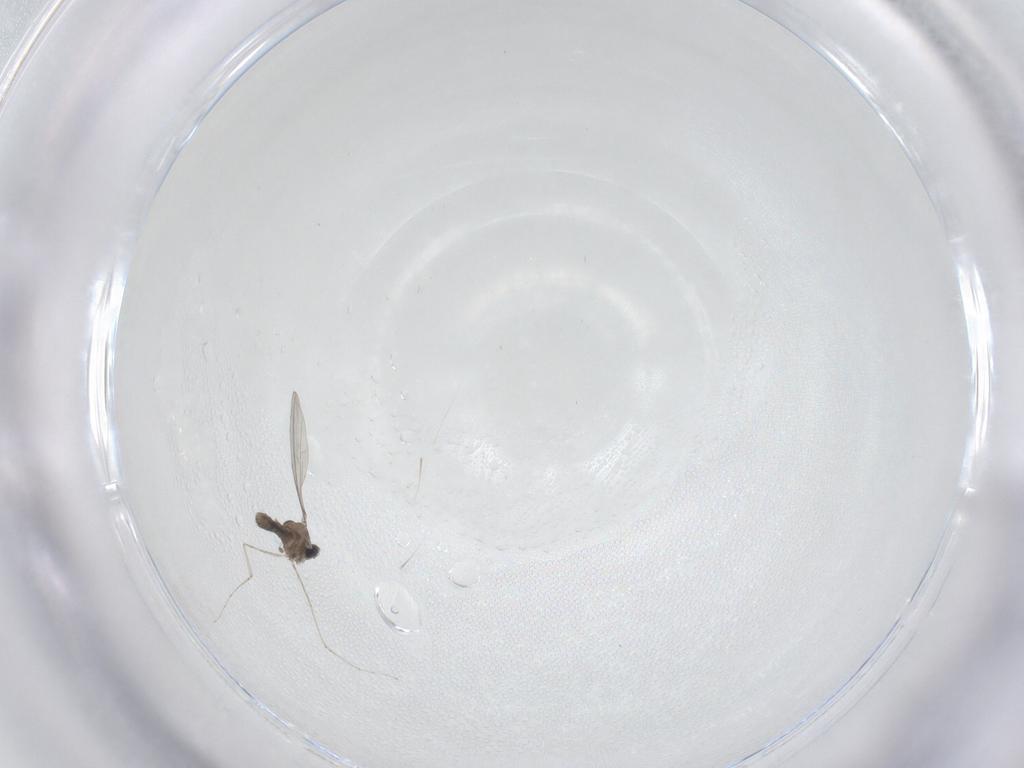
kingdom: Animalia
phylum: Arthropoda
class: Insecta
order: Diptera
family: Cecidomyiidae
